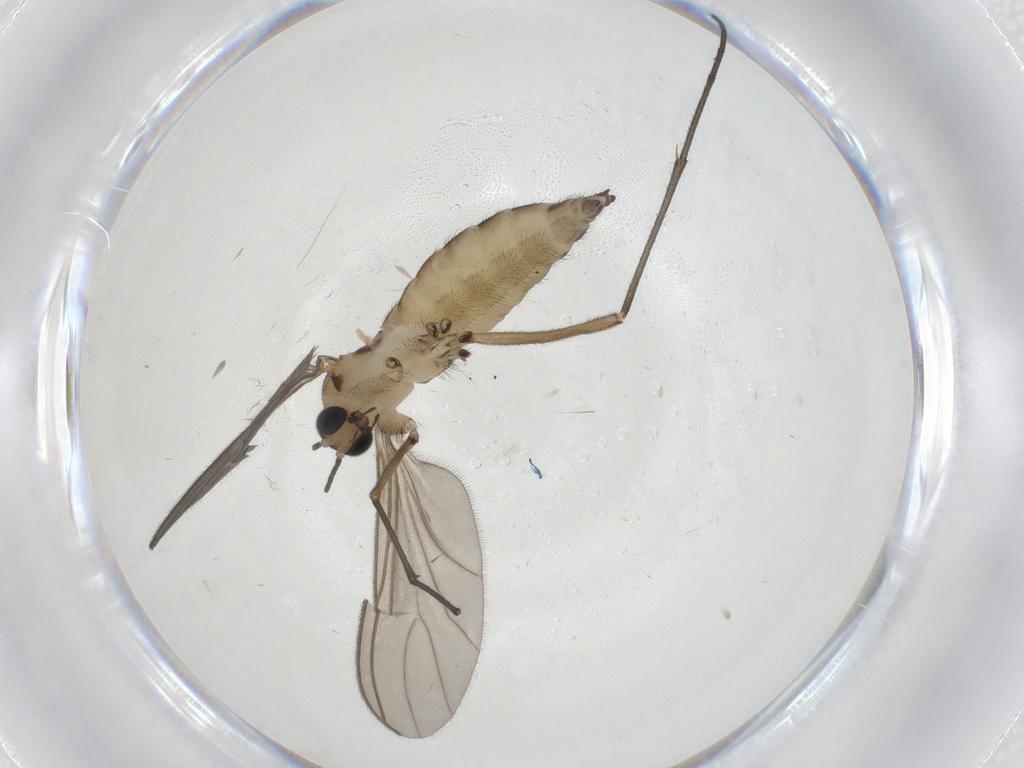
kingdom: Animalia
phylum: Arthropoda
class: Insecta
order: Diptera
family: Sciaridae
